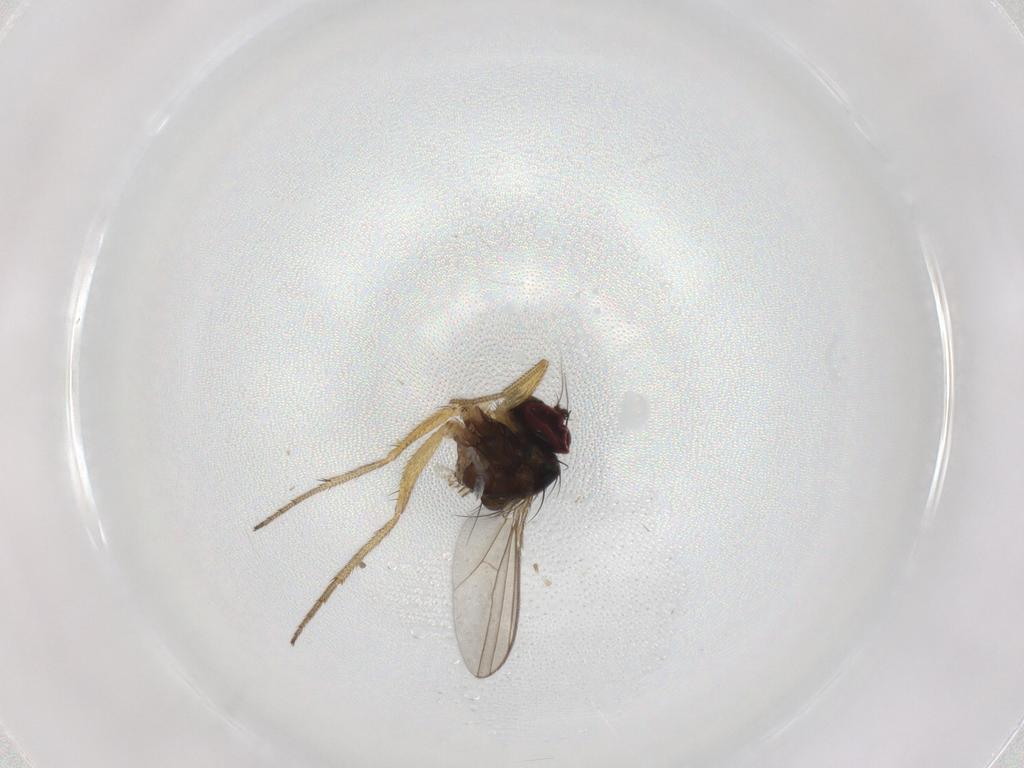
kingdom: Animalia
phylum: Arthropoda
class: Insecta
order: Diptera
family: Dolichopodidae
